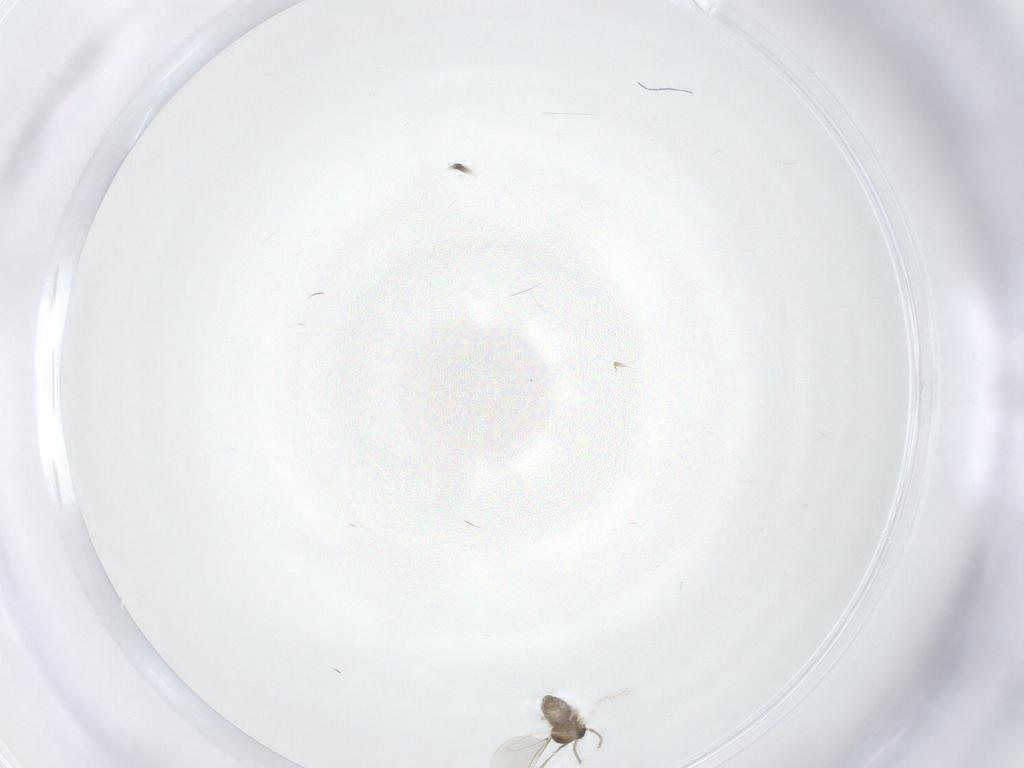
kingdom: Animalia
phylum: Arthropoda
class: Insecta
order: Diptera
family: Cecidomyiidae
